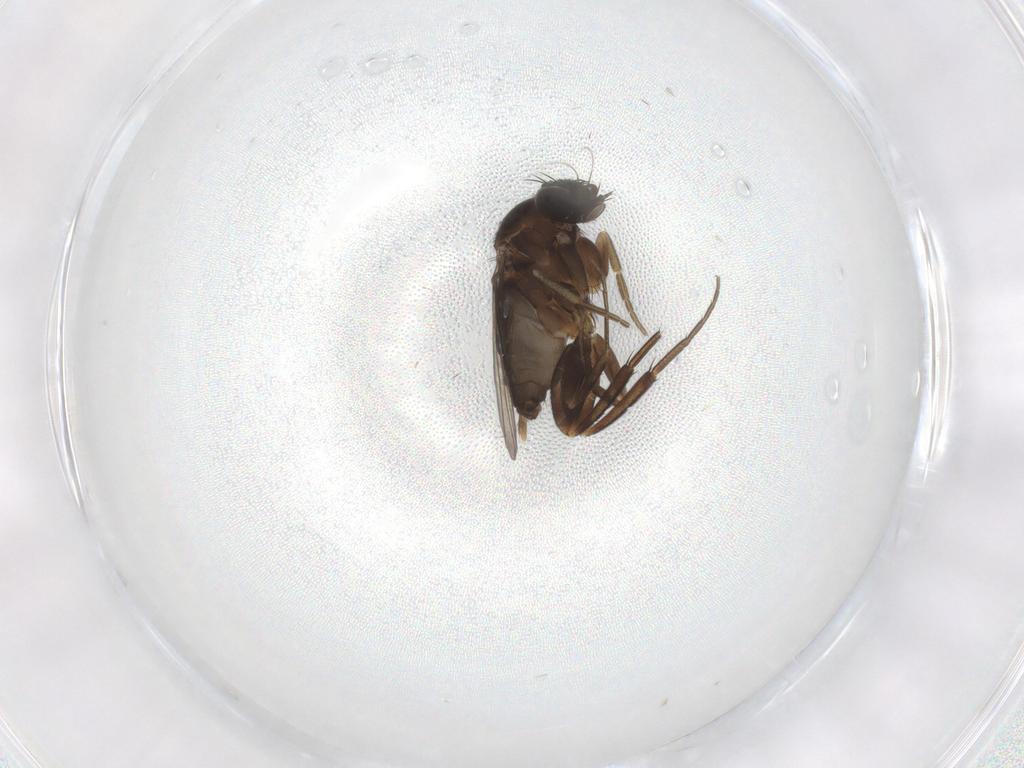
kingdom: Animalia
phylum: Arthropoda
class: Insecta
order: Diptera
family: Phoridae
